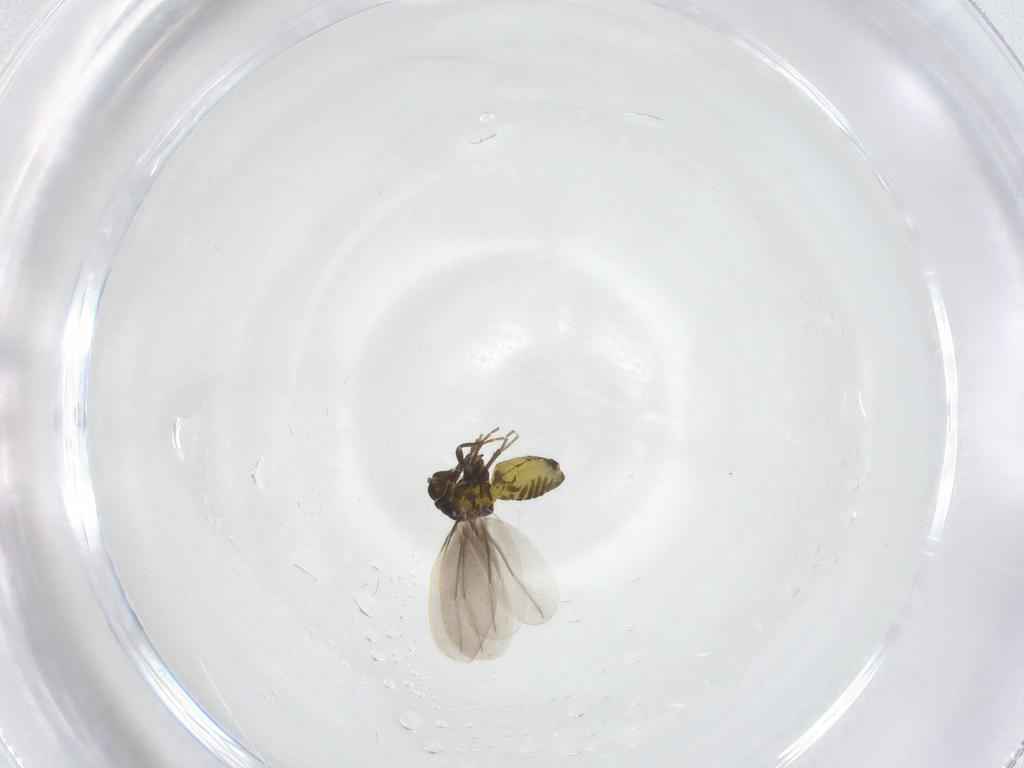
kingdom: Animalia
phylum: Arthropoda
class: Insecta
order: Hemiptera
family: Aleyrodidae
